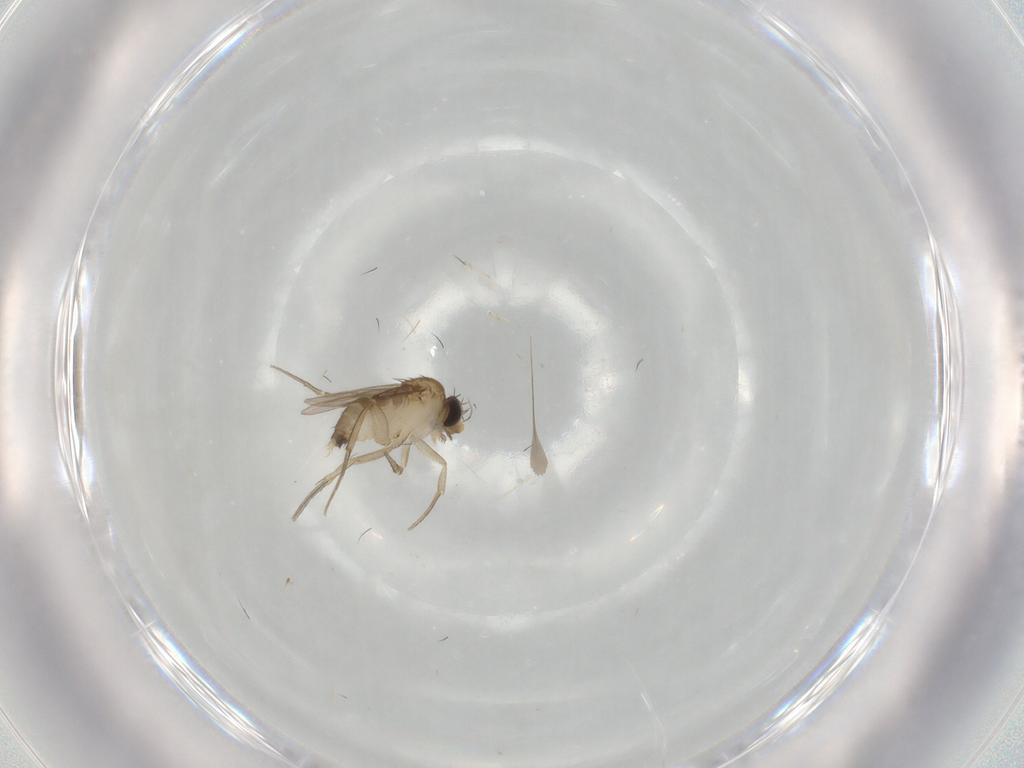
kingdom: Animalia
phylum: Arthropoda
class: Insecta
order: Diptera
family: Phoridae
